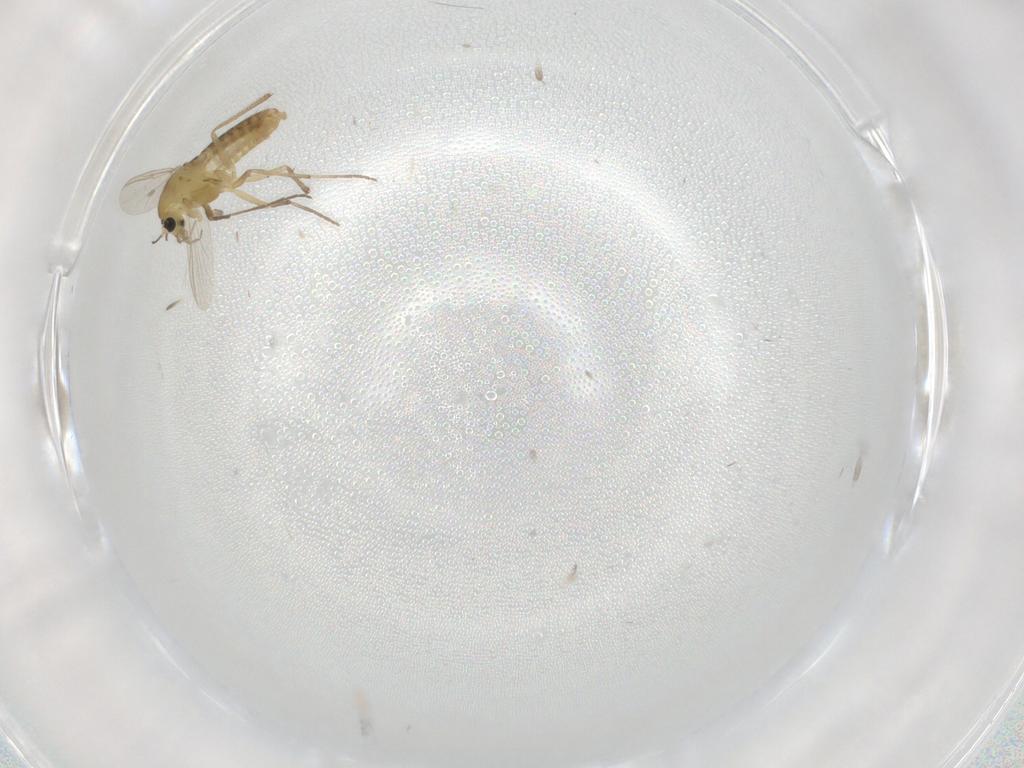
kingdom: Animalia
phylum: Arthropoda
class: Insecta
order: Diptera
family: Chironomidae
